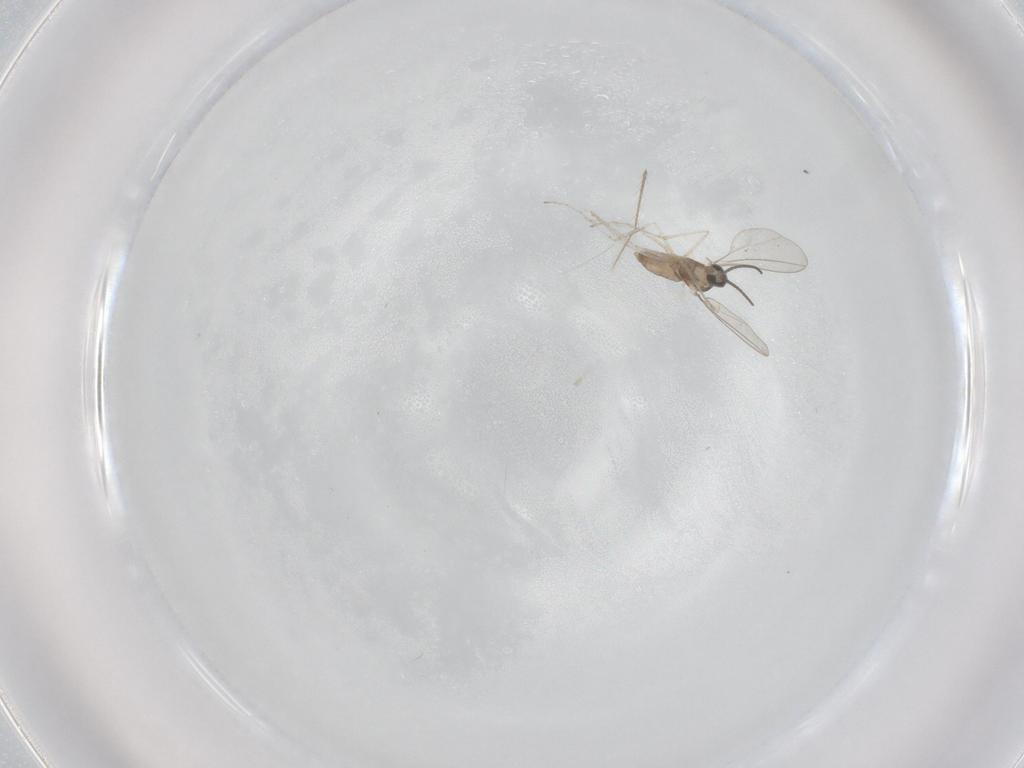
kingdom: Animalia
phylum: Arthropoda
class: Insecta
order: Diptera
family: Cecidomyiidae
